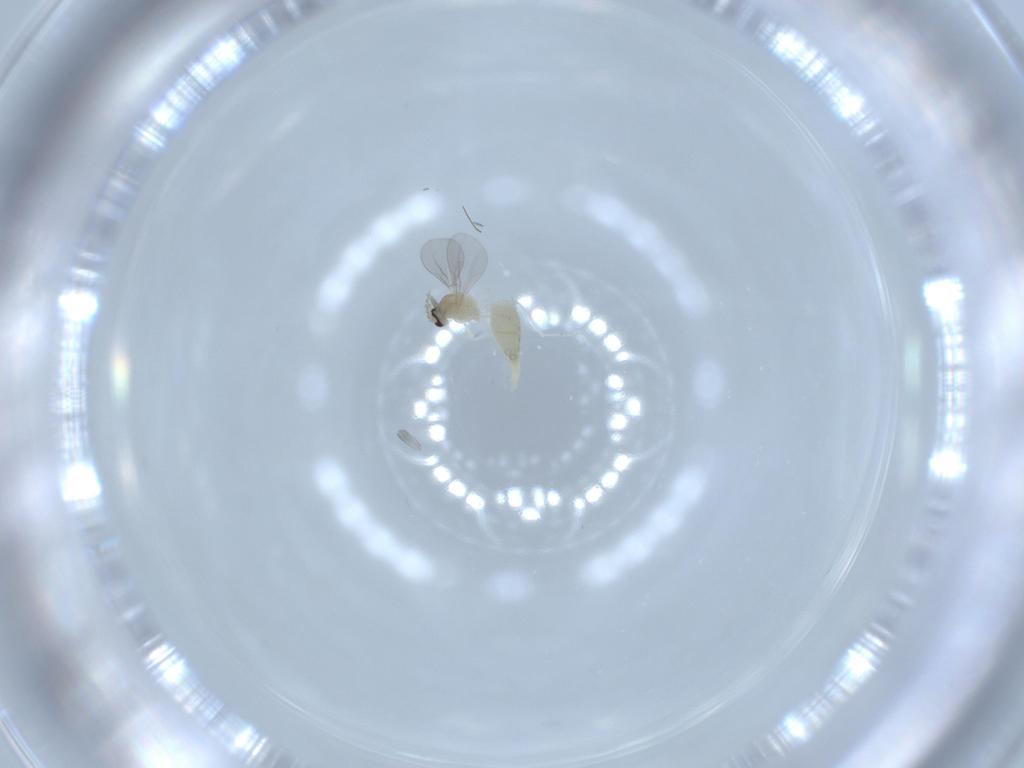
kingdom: Animalia
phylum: Arthropoda
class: Insecta
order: Diptera
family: Cecidomyiidae
